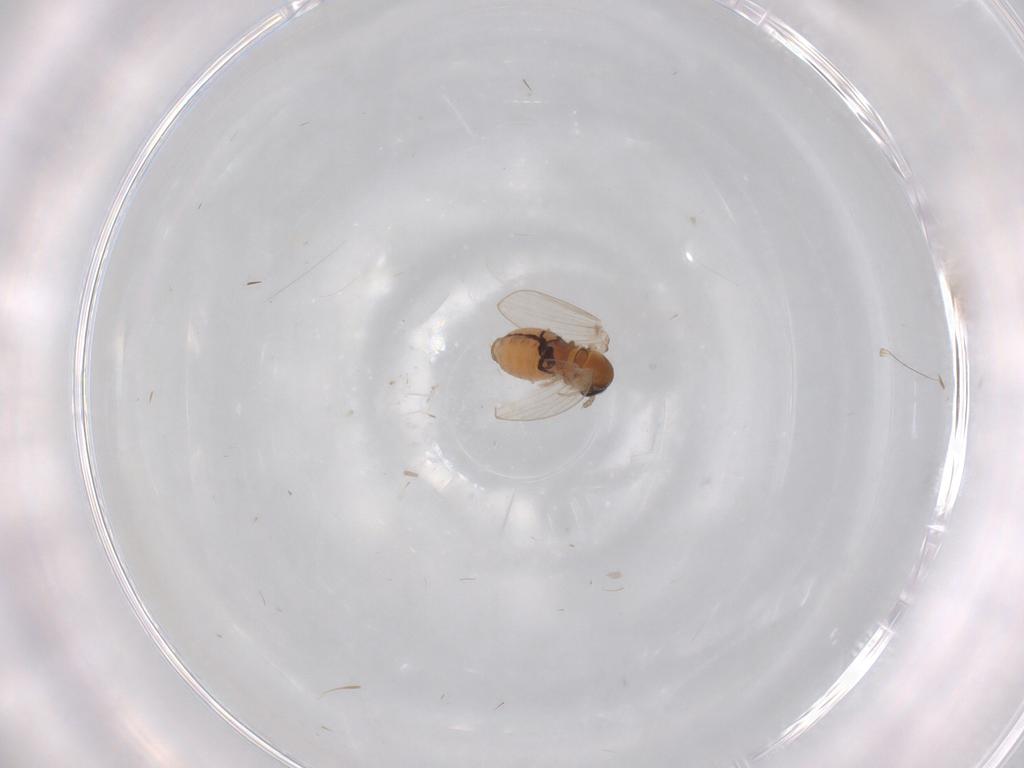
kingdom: Animalia
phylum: Arthropoda
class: Insecta
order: Diptera
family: Psychodidae
